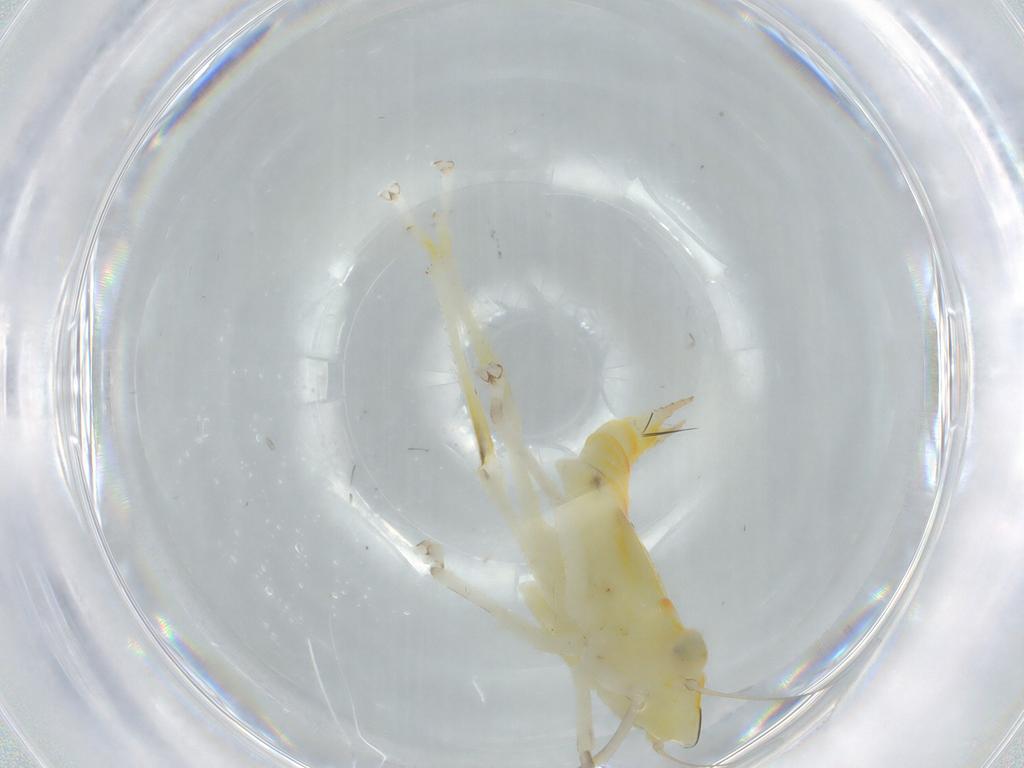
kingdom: Animalia
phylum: Arthropoda
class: Insecta
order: Hemiptera
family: Cicadellidae
